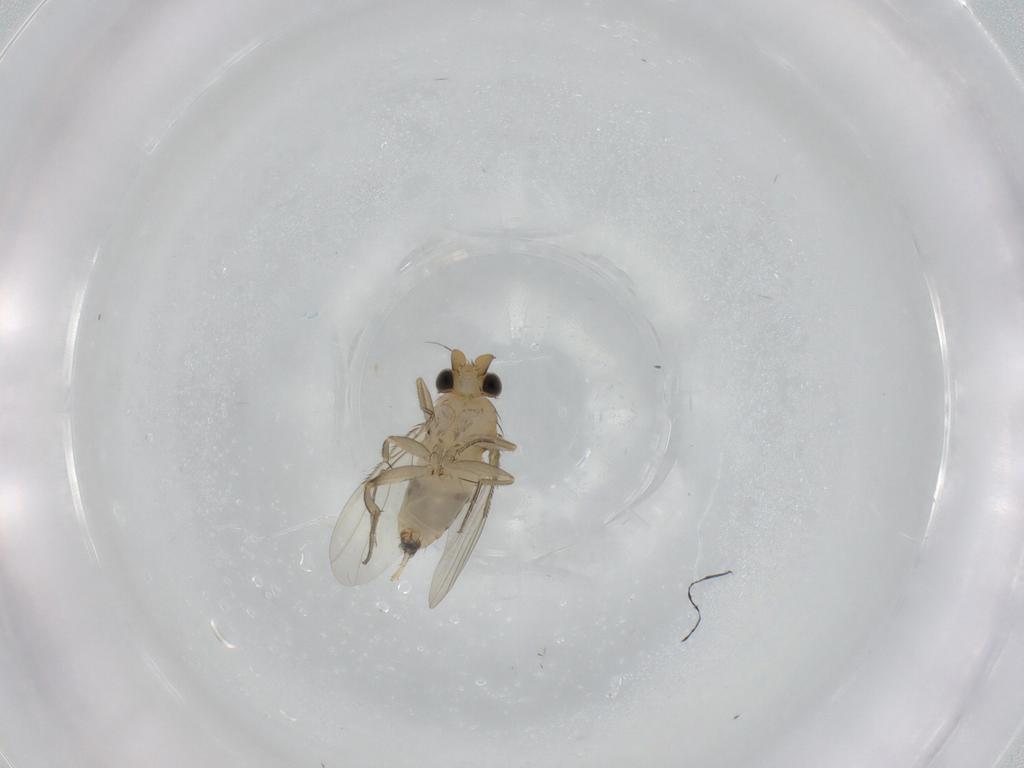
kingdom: Animalia
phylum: Arthropoda
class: Insecta
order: Diptera
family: Phoridae
